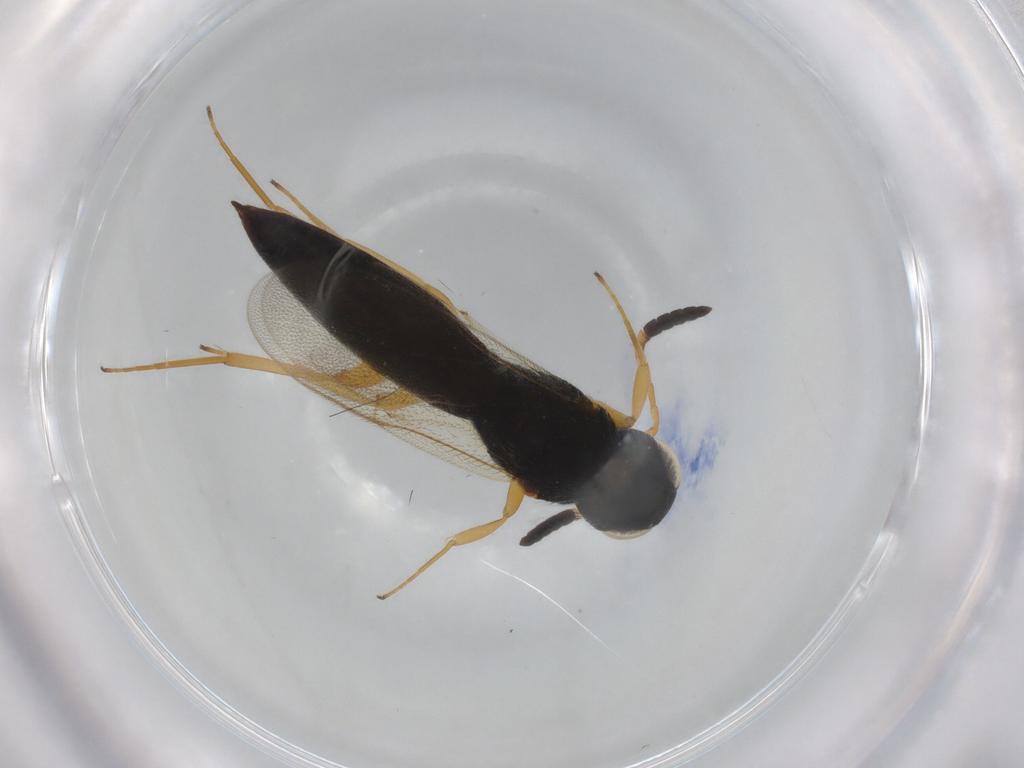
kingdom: Animalia
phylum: Arthropoda
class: Insecta
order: Hymenoptera
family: Scelionidae
